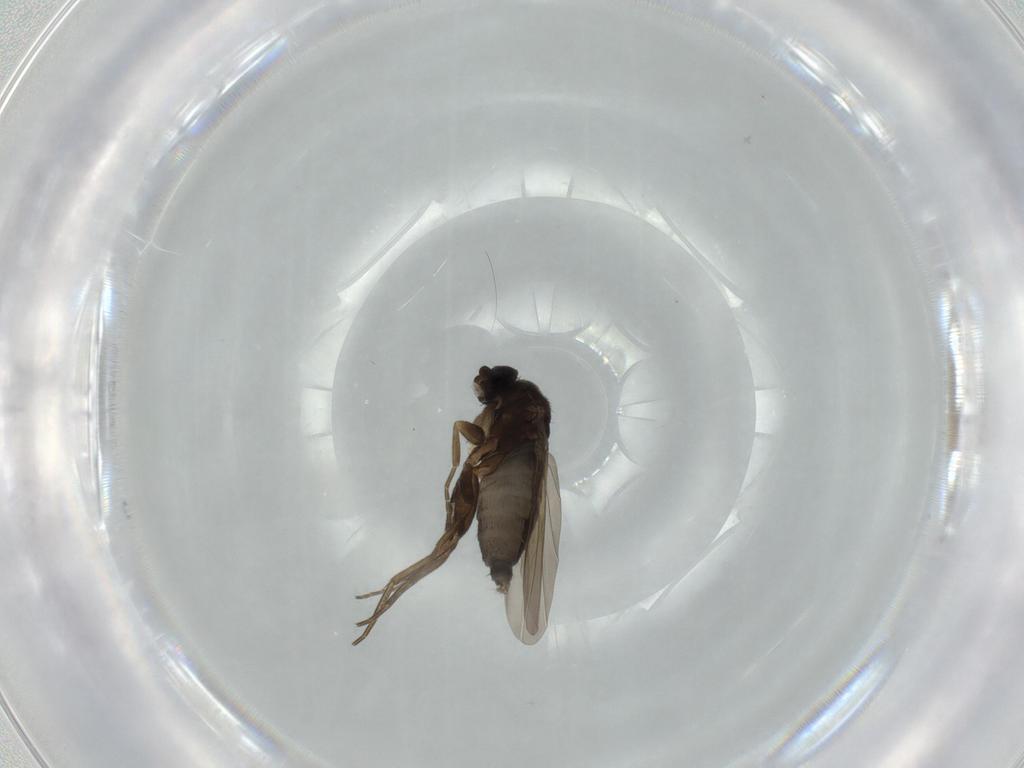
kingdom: Animalia
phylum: Arthropoda
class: Insecta
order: Diptera
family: Phoridae
